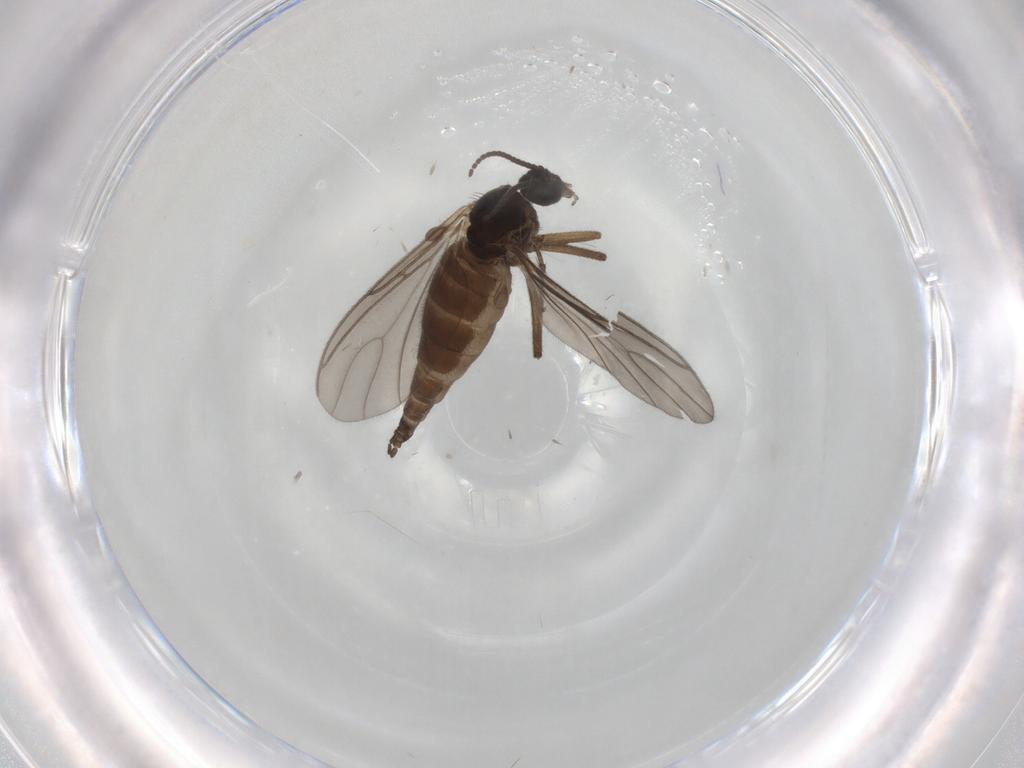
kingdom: Animalia
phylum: Arthropoda
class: Insecta
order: Diptera
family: Sciaridae
